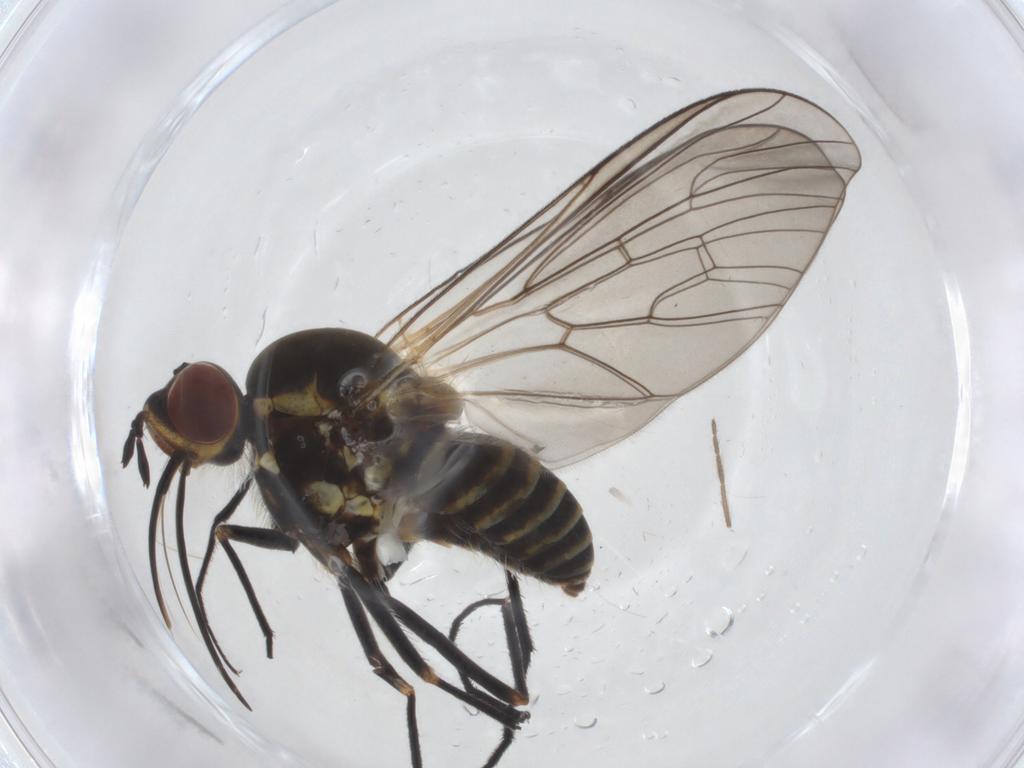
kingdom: Animalia
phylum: Arthropoda
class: Insecta
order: Diptera
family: Bombyliidae
